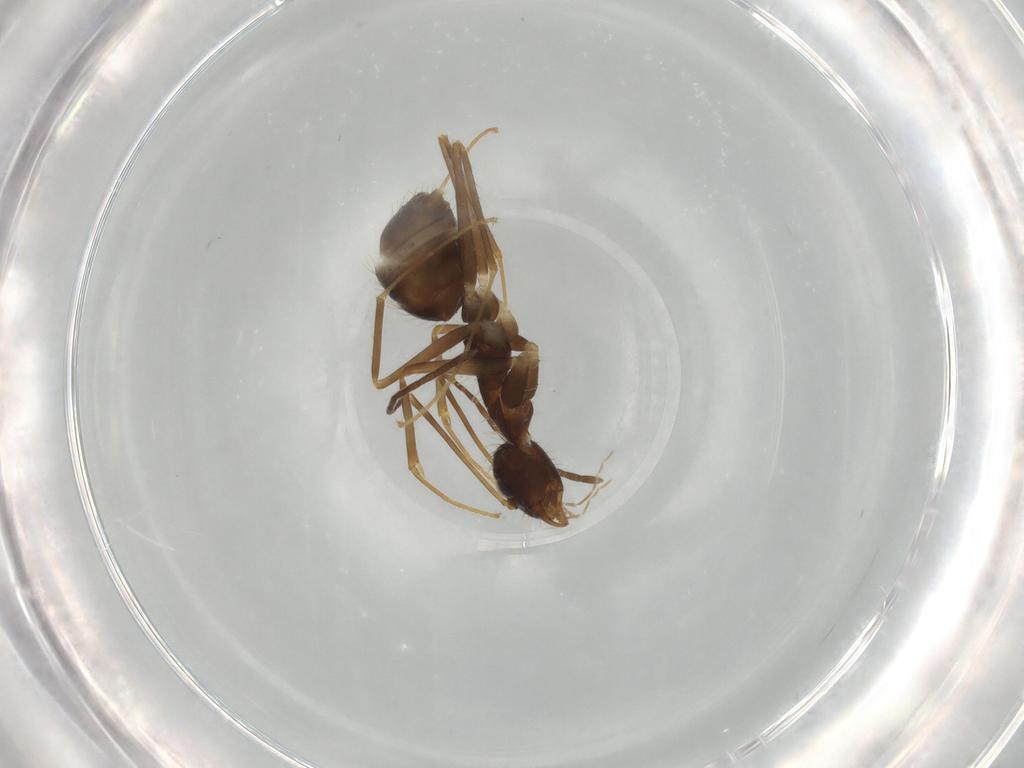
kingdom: Animalia
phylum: Arthropoda
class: Insecta
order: Hymenoptera
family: Formicidae
